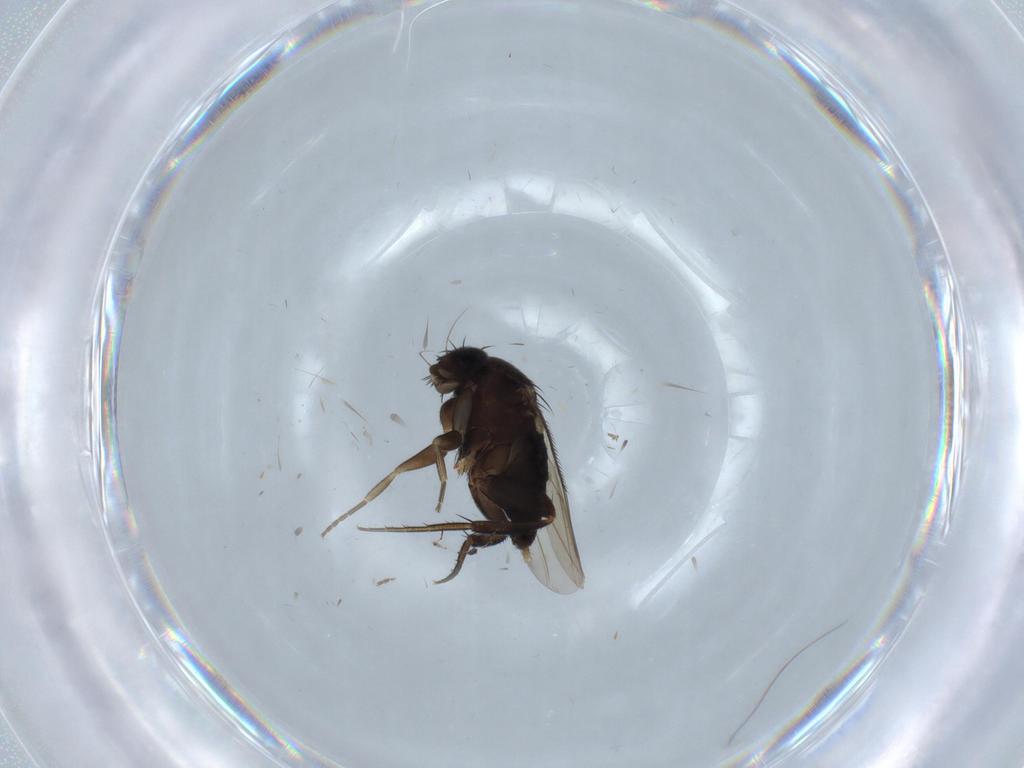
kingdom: Animalia
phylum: Arthropoda
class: Insecta
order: Diptera
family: Phoridae
